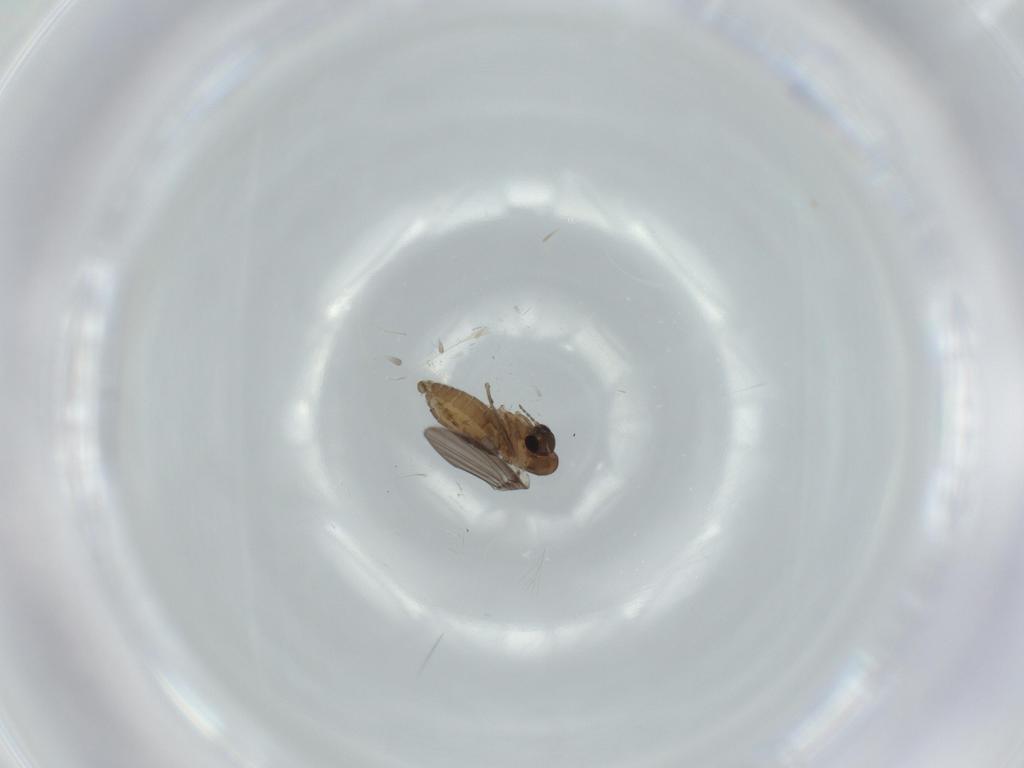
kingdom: Animalia
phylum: Arthropoda
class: Insecta
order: Diptera
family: Psychodidae
